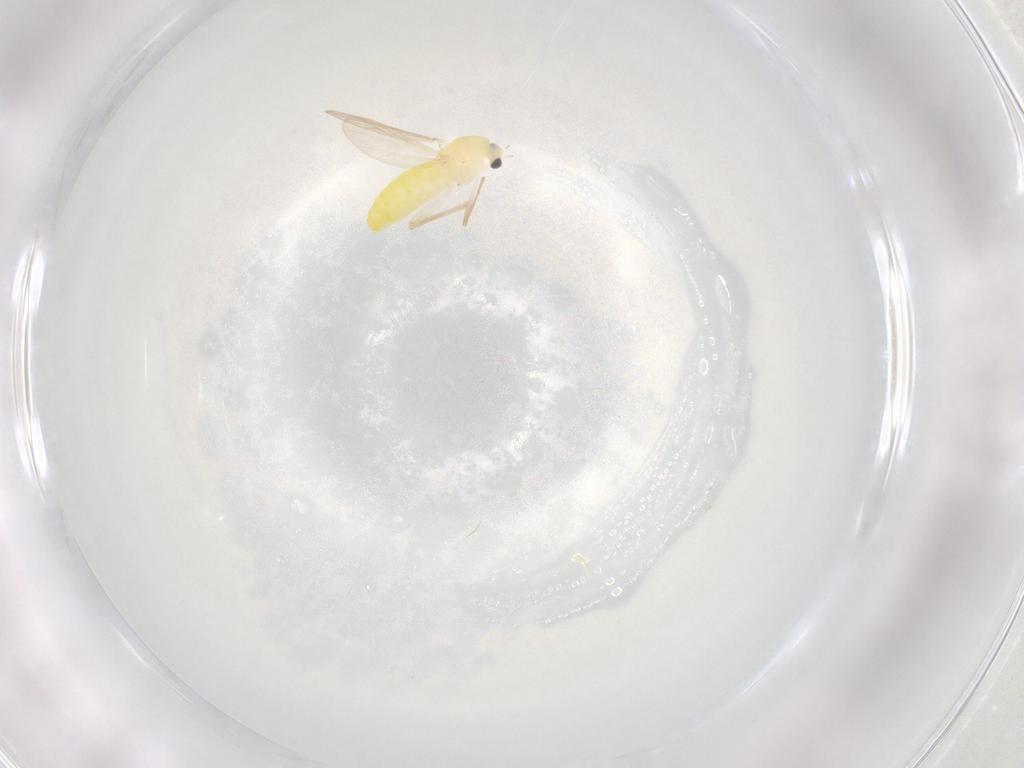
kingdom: Animalia
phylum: Arthropoda
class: Insecta
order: Diptera
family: Chironomidae
